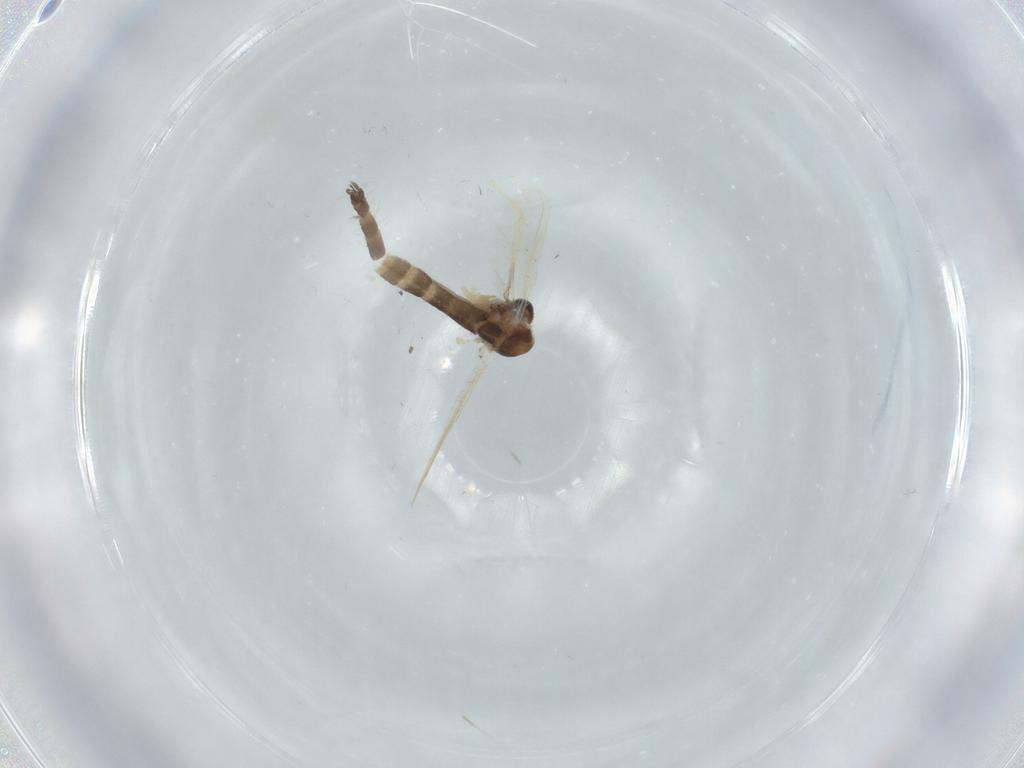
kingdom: Animalia
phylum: Arthropoda
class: Insecta
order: Diptera
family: Chironomidae
